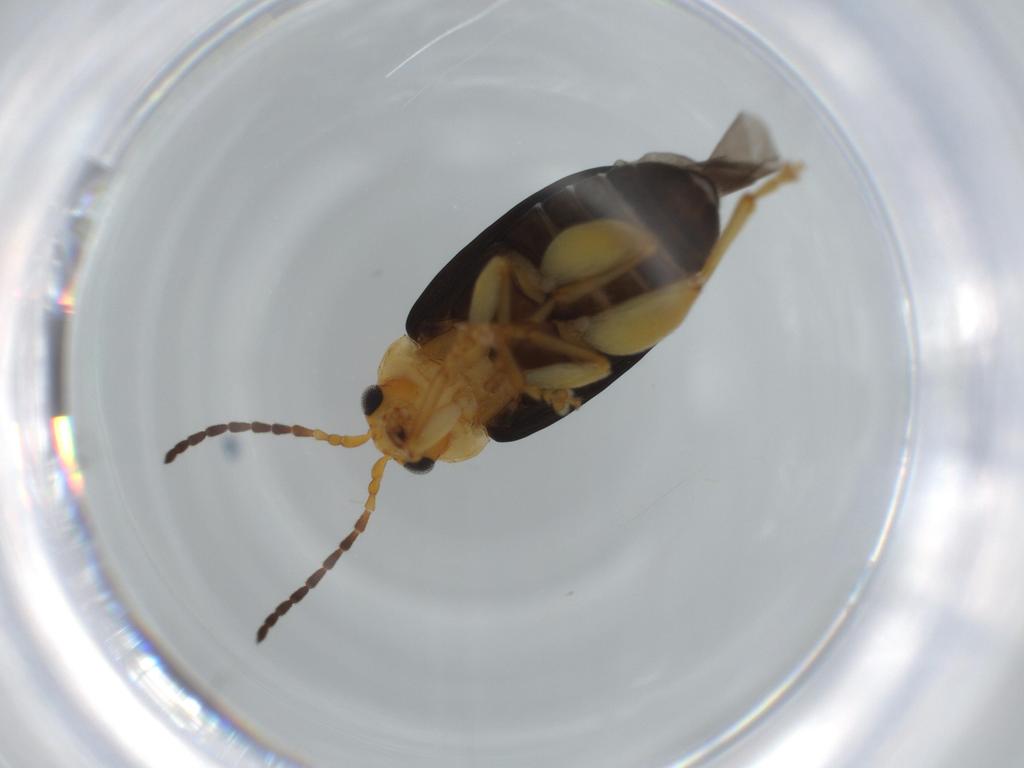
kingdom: Animalia
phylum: Arthropoda
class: Insecta
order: Coleoptera
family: Chrysomelidae
